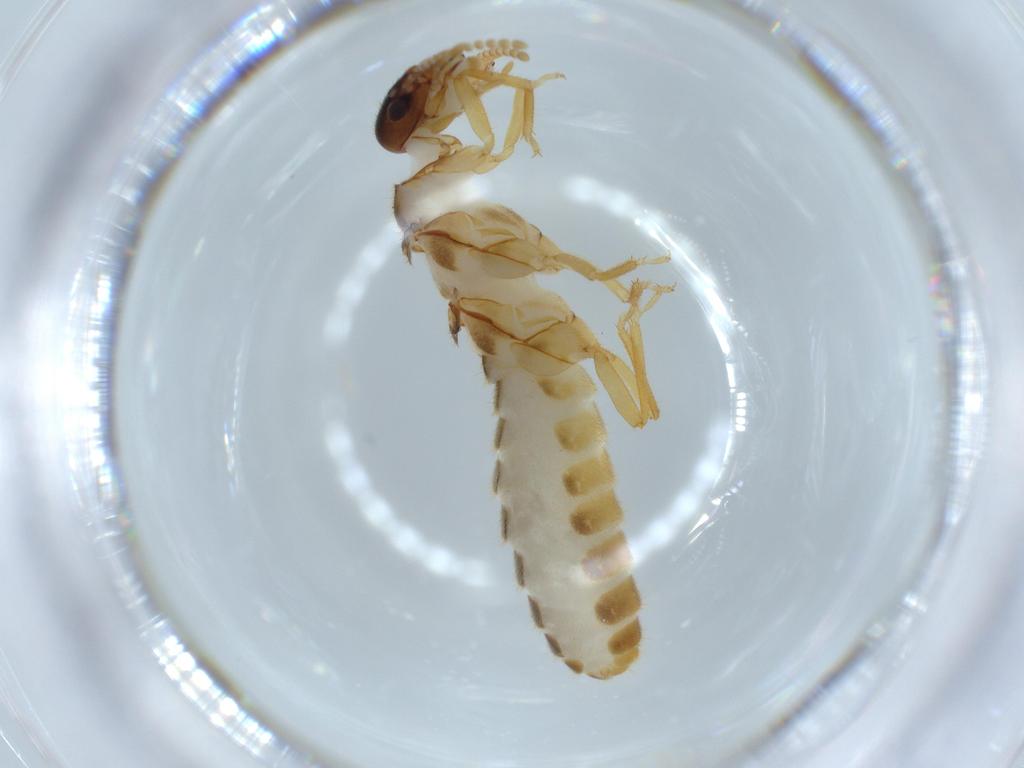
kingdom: Animalia
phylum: Arthropoda
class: Insecta
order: Blattodea
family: Termitidae
